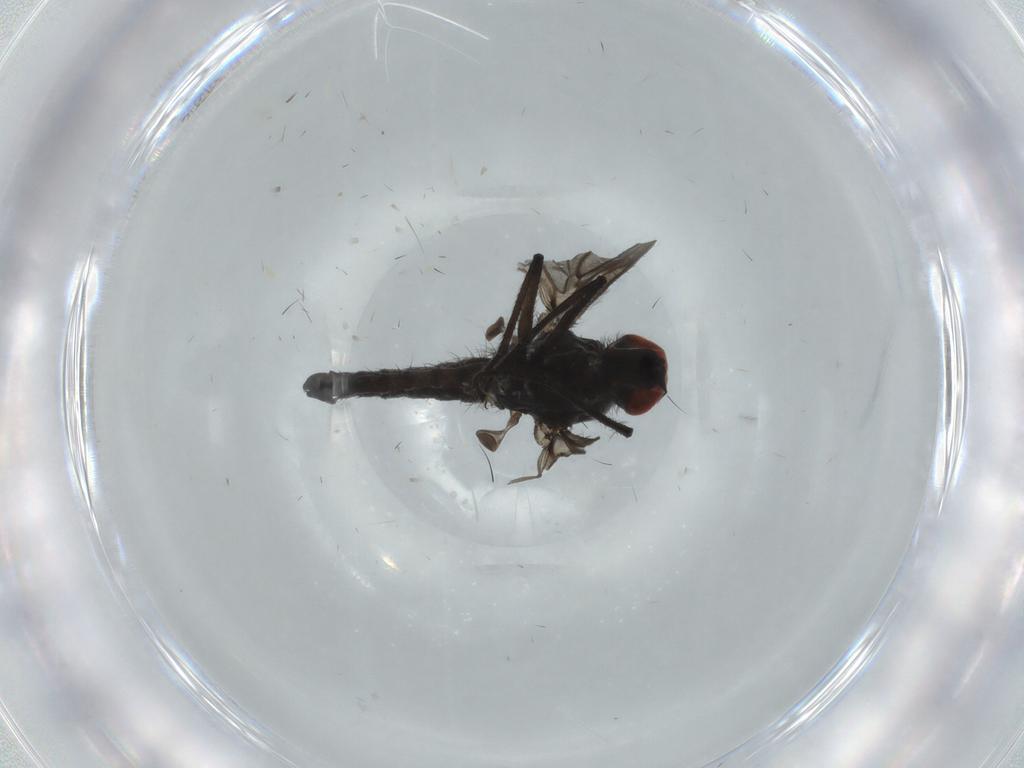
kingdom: Animalia
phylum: Arthropoda
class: Insecta
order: Diptera
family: Hybotidae
